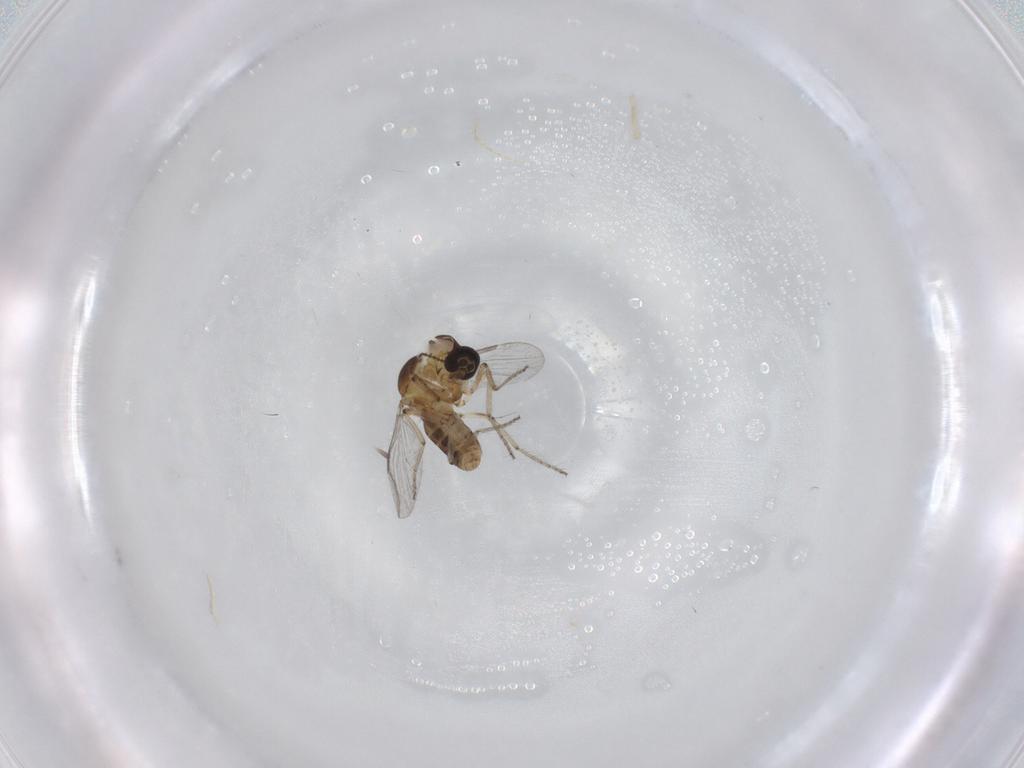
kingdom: Animalia
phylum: Arthropoda
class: Insecta
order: Diptera
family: Ceratopogonidae
